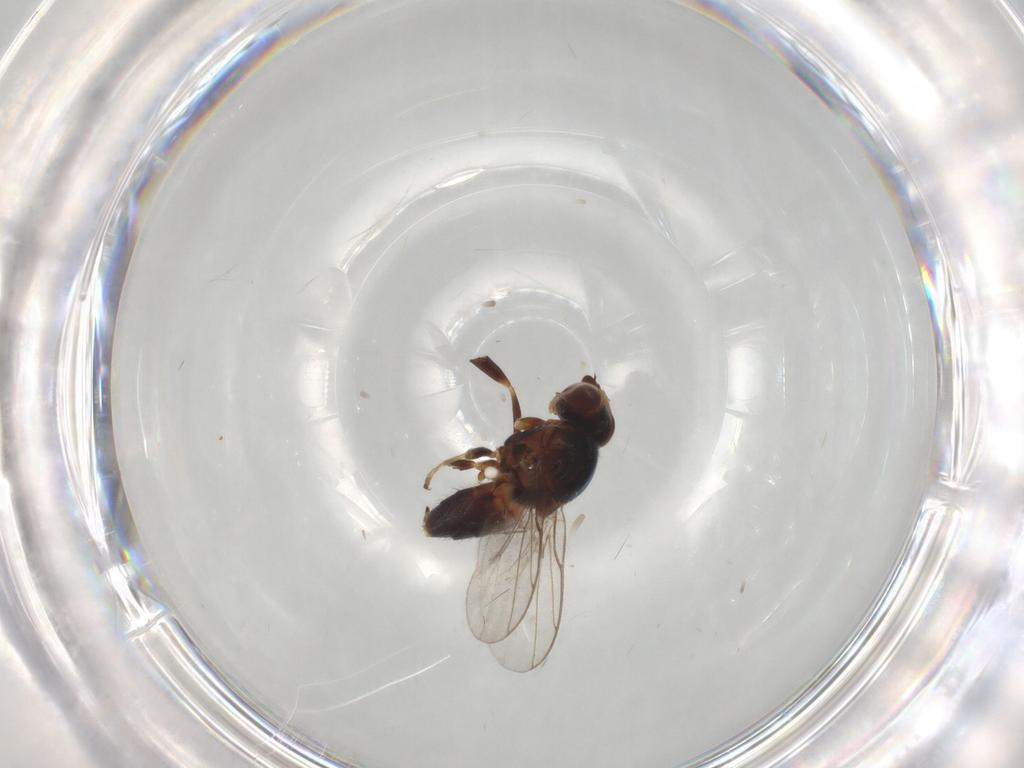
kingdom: Animalia
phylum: Arthropoda
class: Insecta
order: Diptera
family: Chloropidae
